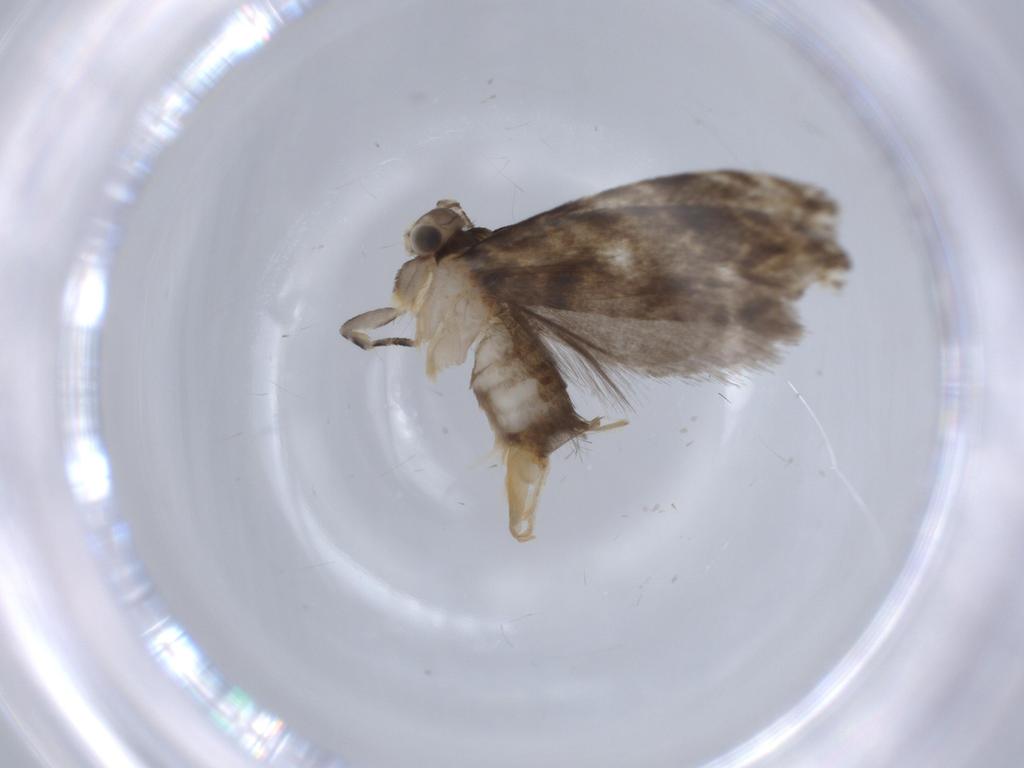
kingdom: Animalia
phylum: Arthropoda
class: Insecta
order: Lepidoptera
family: Tineidae
